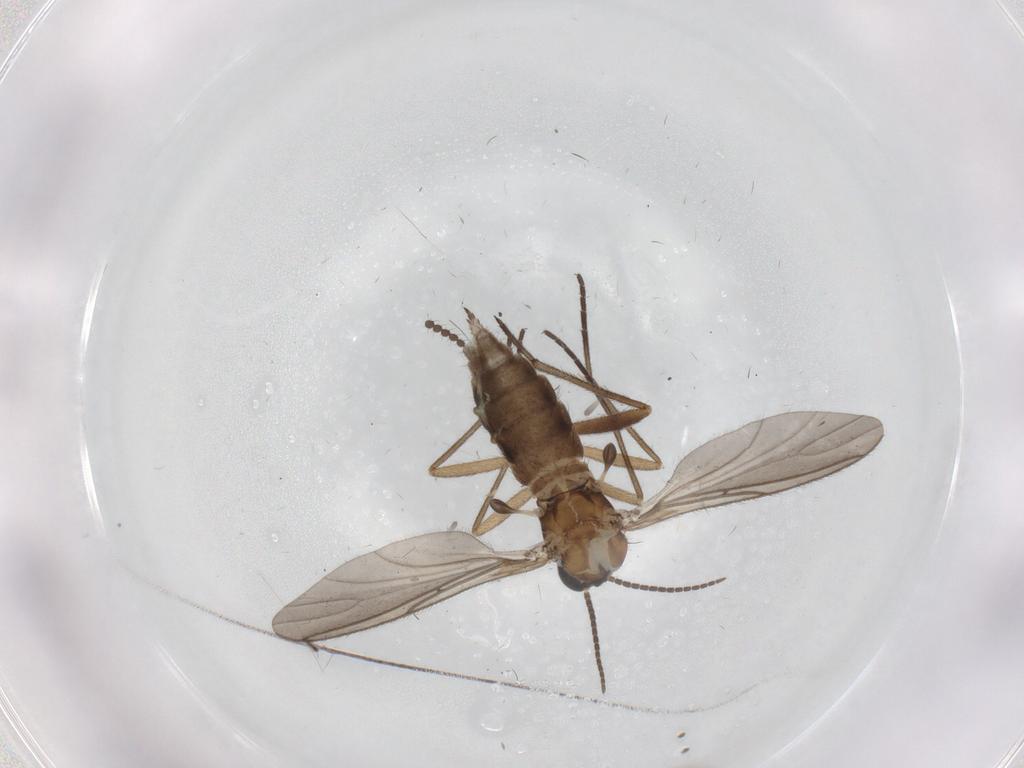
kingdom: Animalia
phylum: Arthropoda
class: Insecta
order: Diptera
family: Sciaridae
